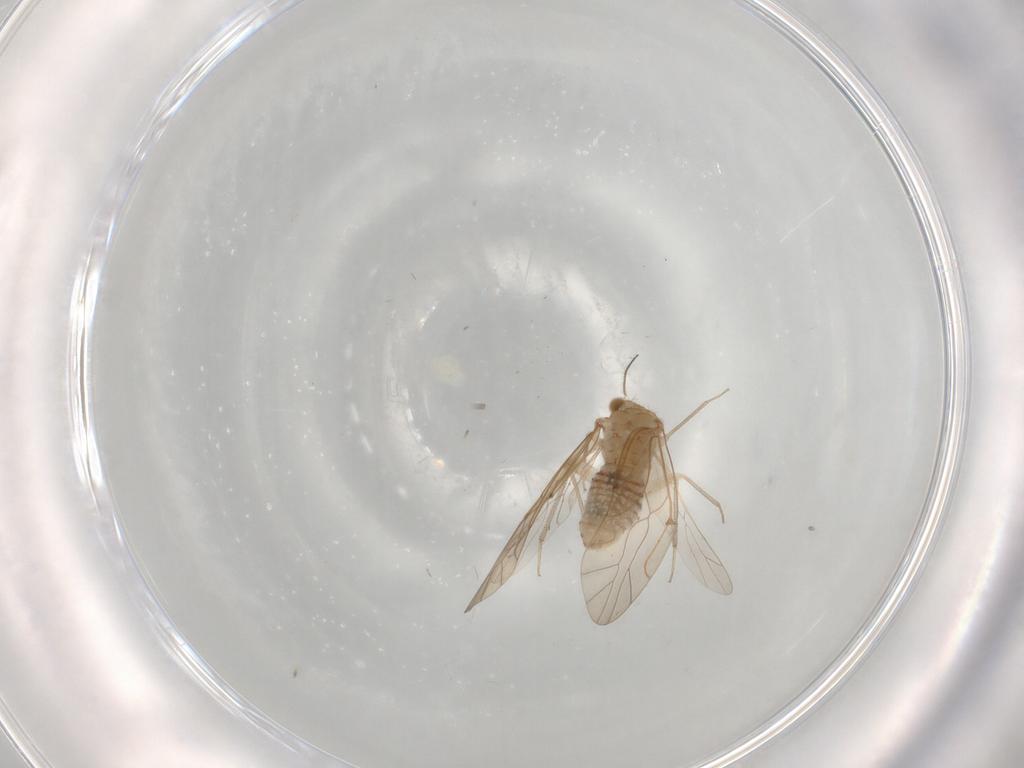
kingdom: Animalia
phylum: Arthropoda
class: Insecta
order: Psocodea
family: Lachesillidae
